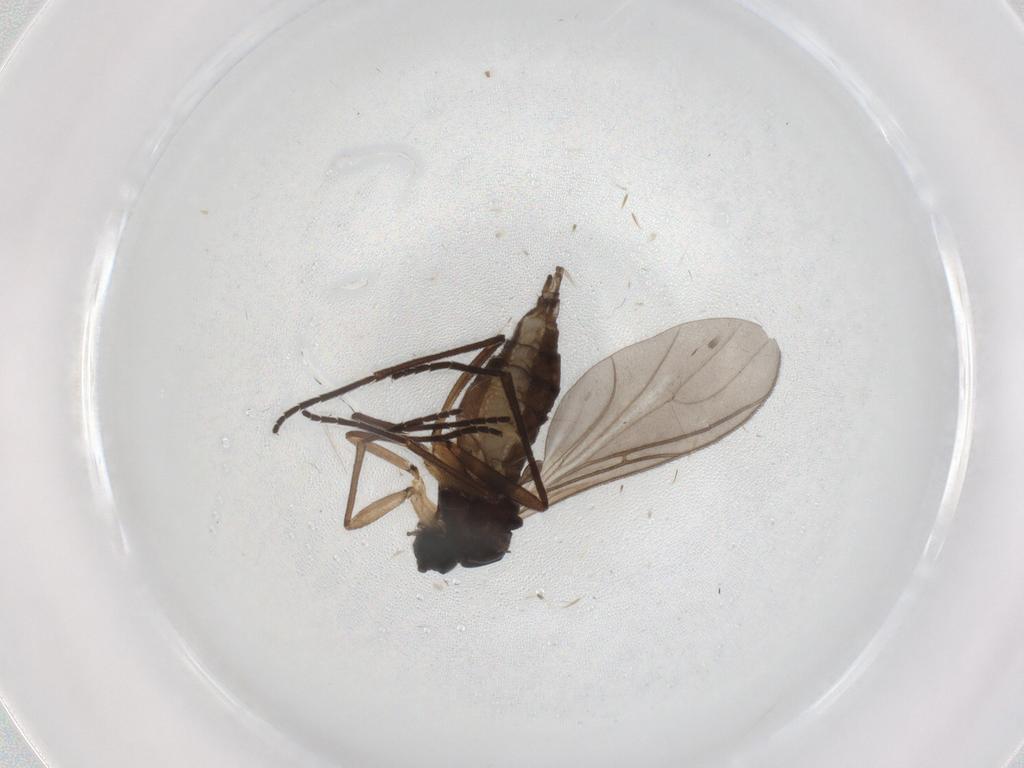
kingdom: Animalia
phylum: Arthropoda
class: Insecta
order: Diptera
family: Sciaridae
